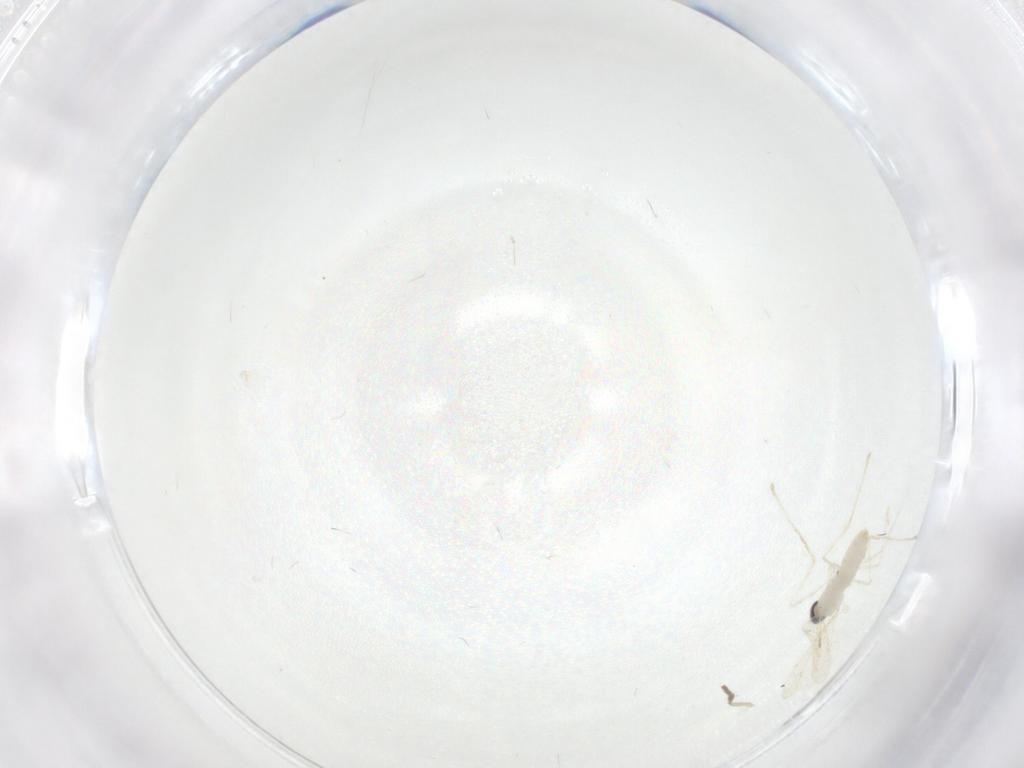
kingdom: Animalia
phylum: Arthropoda
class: Insecta
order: Diptera
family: Cecidomyiidae
